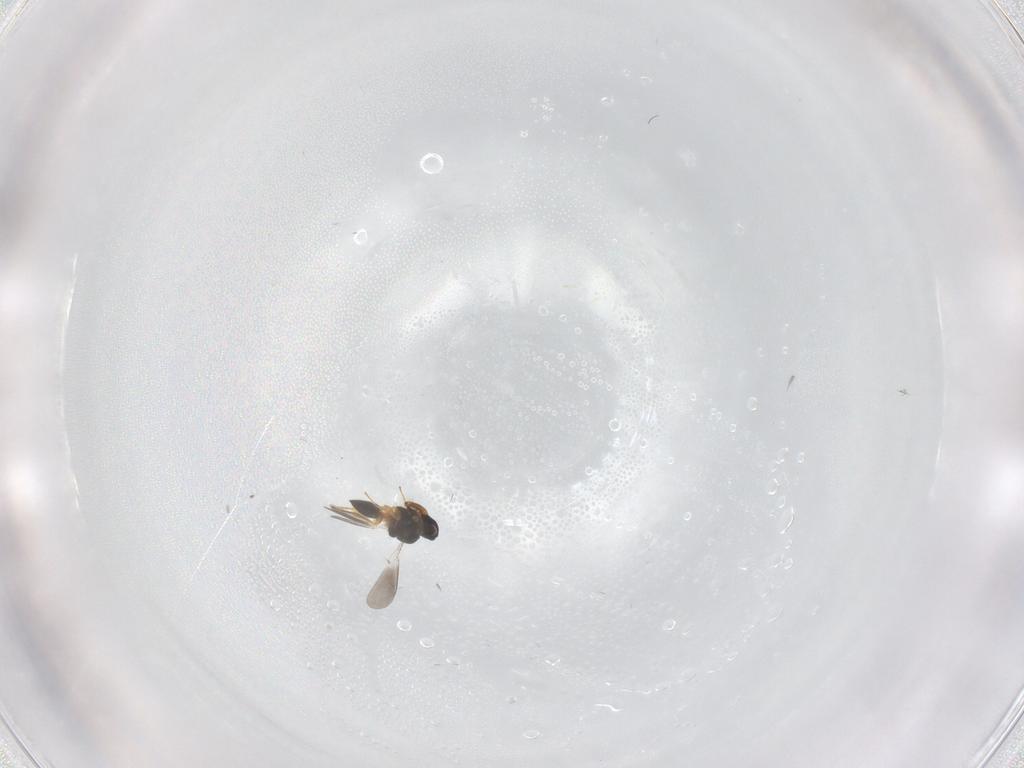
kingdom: Animalia
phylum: Arthropoda
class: Insecta
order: Hymenoptera
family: Platygastridae
